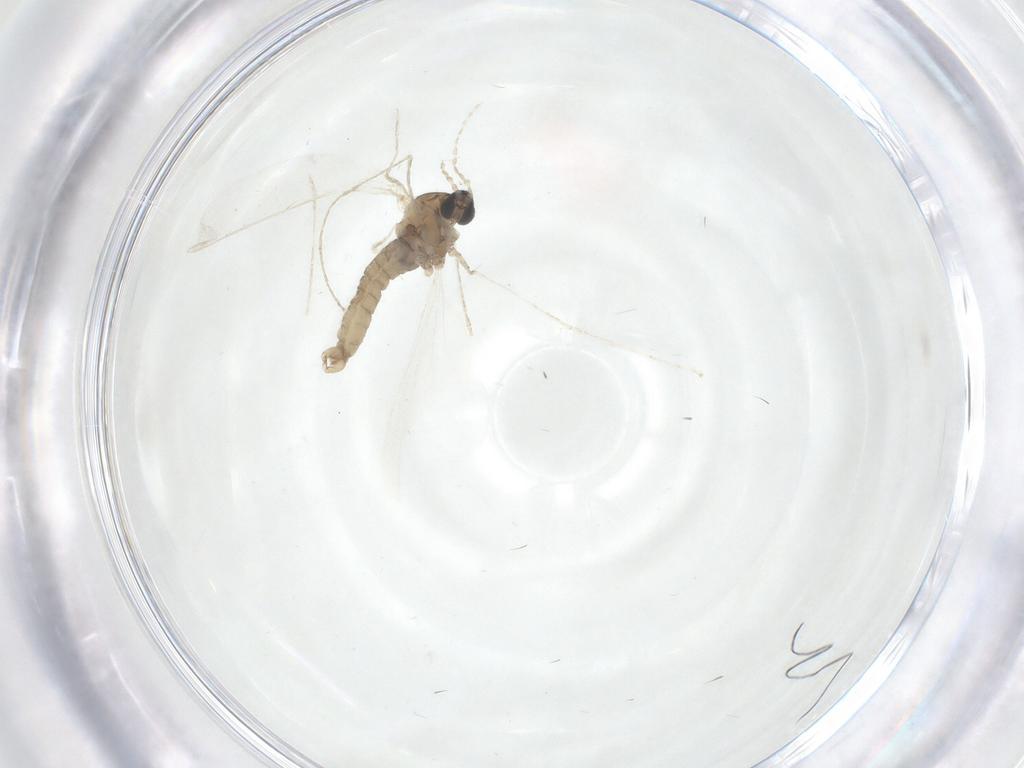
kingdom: Animalia
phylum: Arthropoda
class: Insecta
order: Diptera
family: Cecidomyiidae
